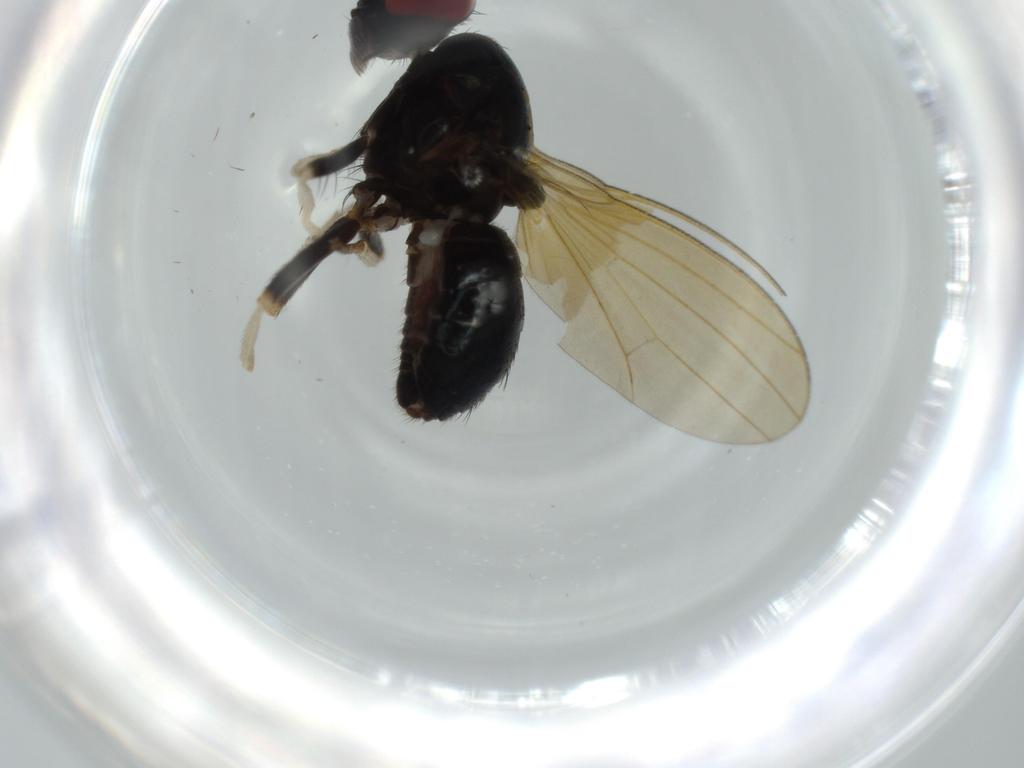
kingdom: Animalia
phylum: Arthropoda
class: Insecta
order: Diptera
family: Lauxaniidae
